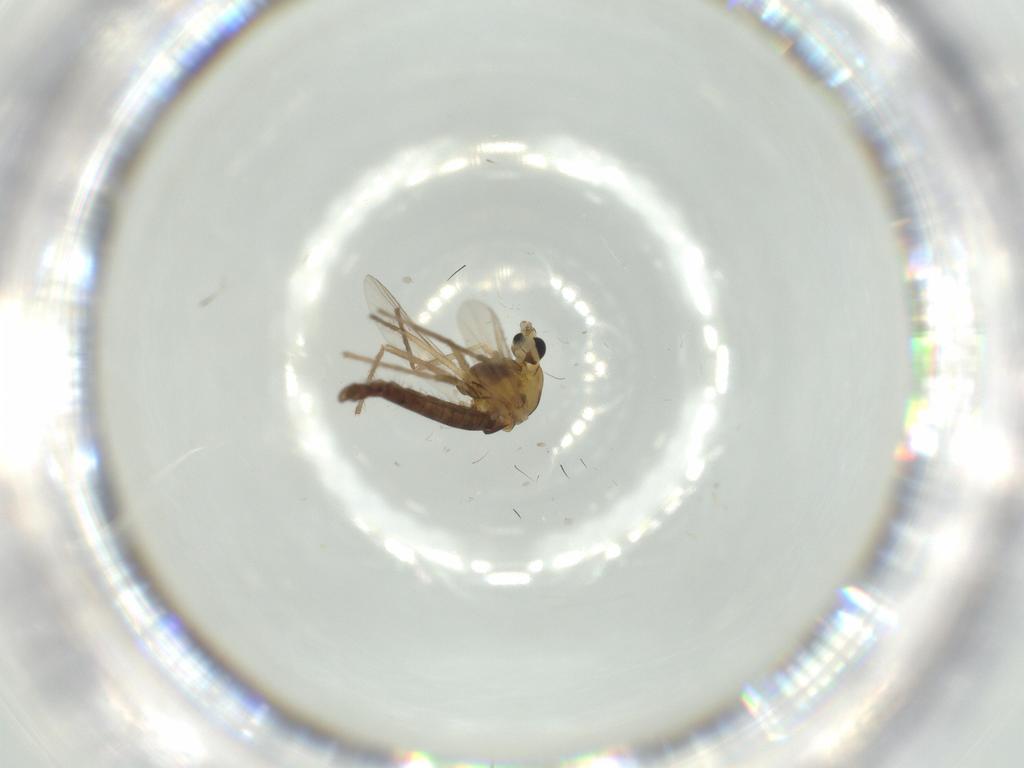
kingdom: Animalia
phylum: Arthropoda
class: Insecta
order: Diptera
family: Chironomidae
